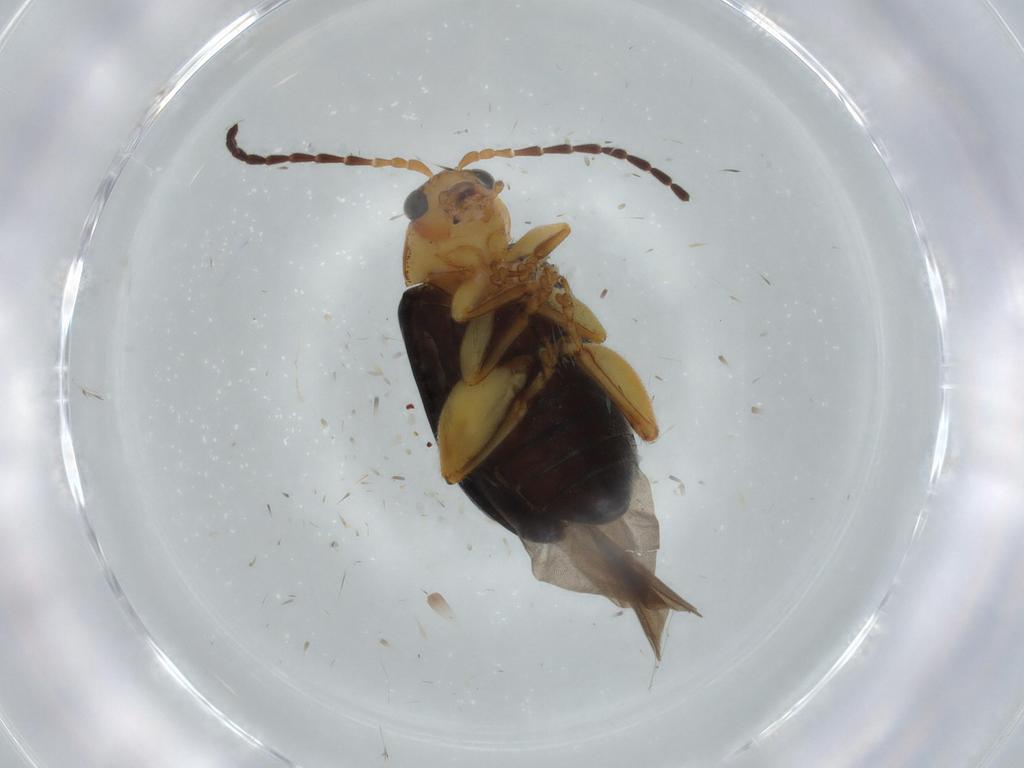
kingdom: Animalia
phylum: Arthropoda
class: Insecta
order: Coleoptera
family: Chrysomelidae
